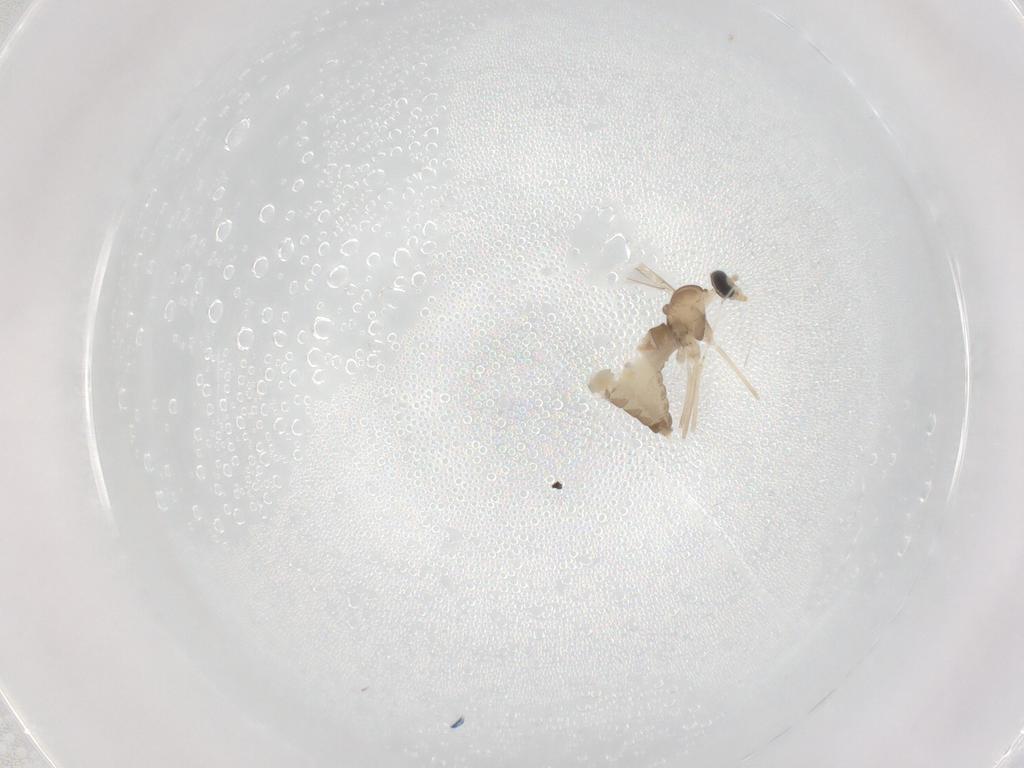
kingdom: Animalia
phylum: Arthropoda
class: Insecta
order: Diptera
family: Cecidomyiidae
